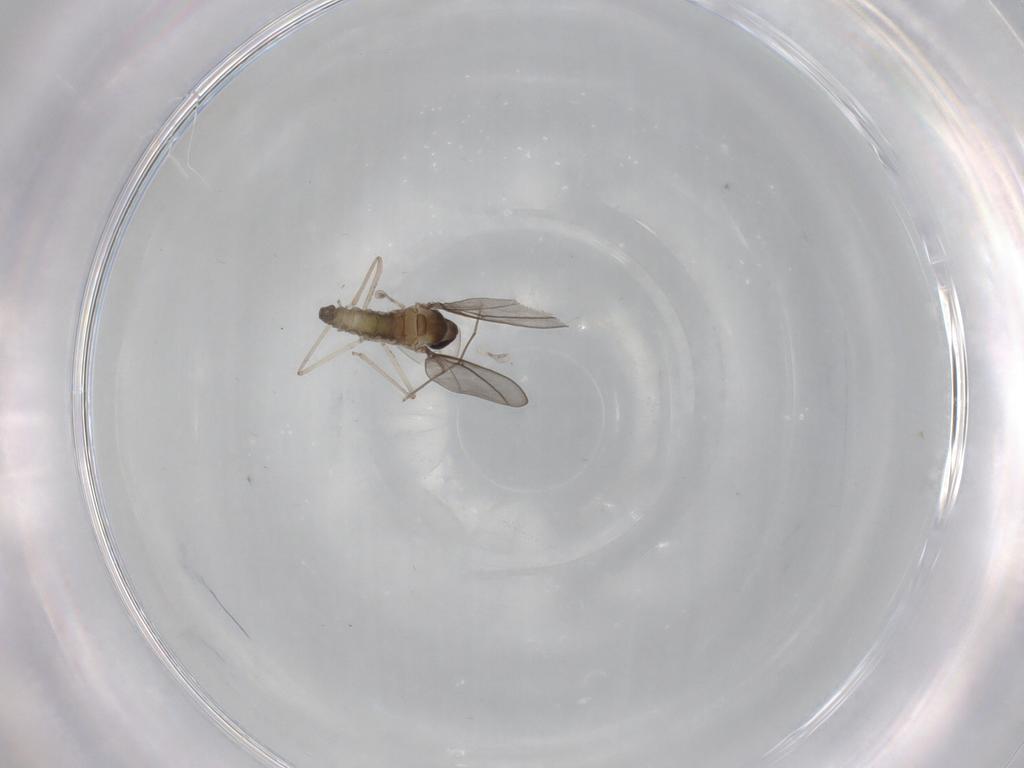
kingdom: Animalia
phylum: Arthropoda
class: Insecta
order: Diptera
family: Cecidomyiidae
